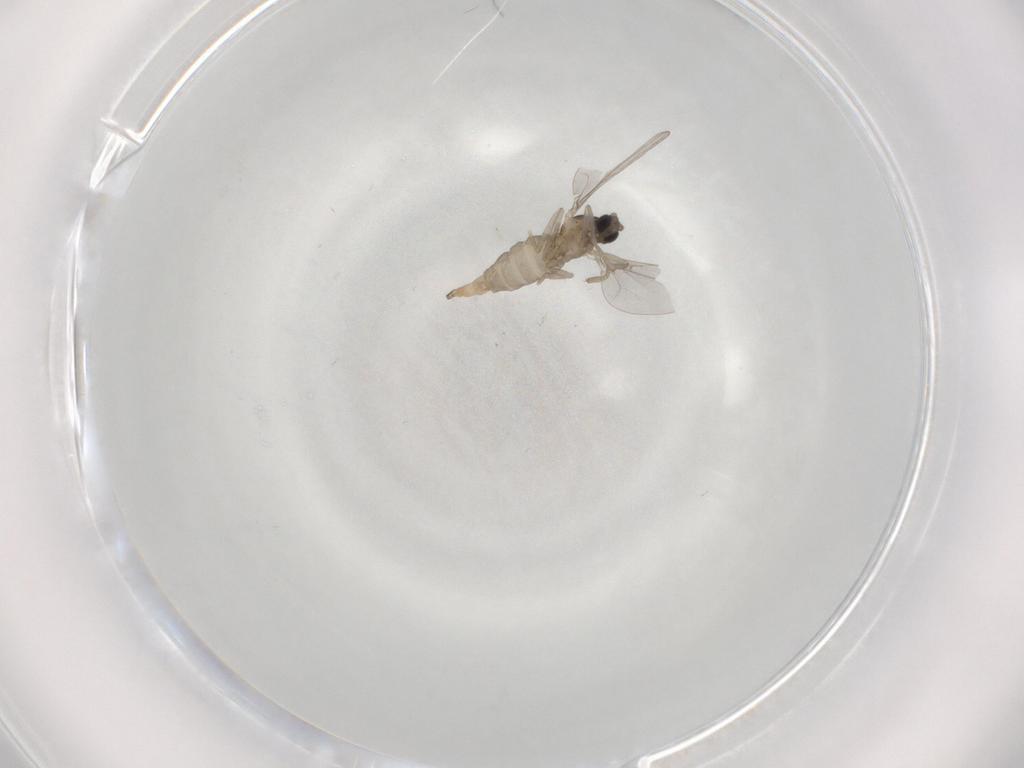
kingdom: Animalia
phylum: Arthropoda
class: Insecta
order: Diptera
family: Cecidomyiidae
